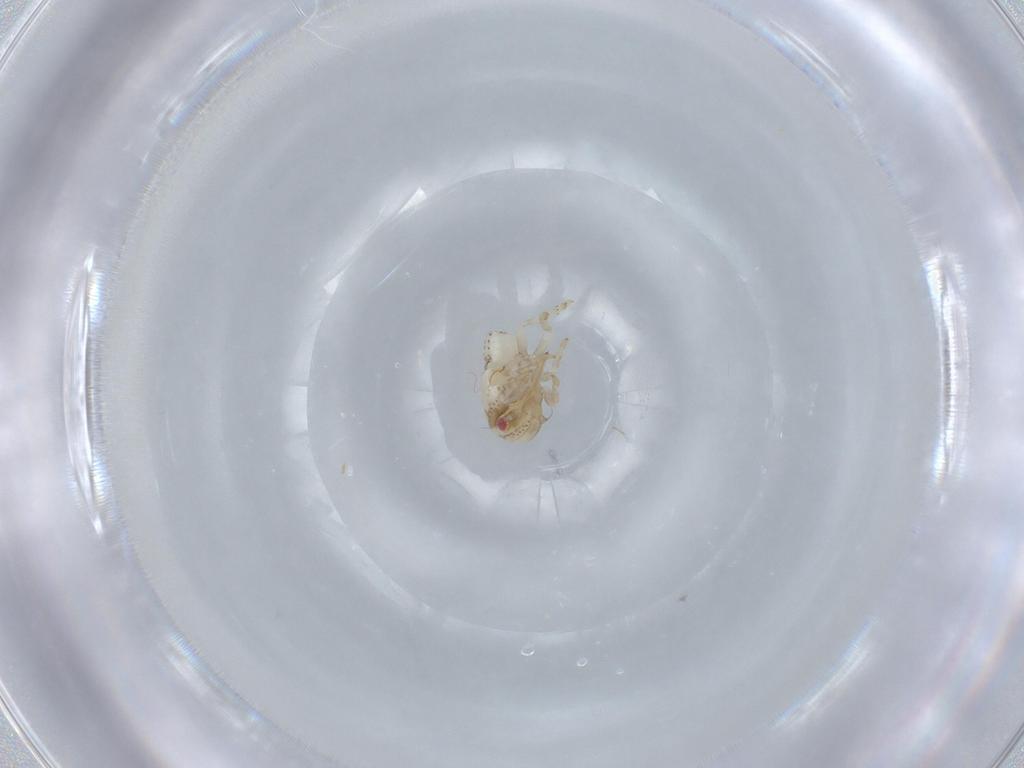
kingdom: Animalia
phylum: Arthropoda
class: Insecta
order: Hemiptera
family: Acanaloniidae
